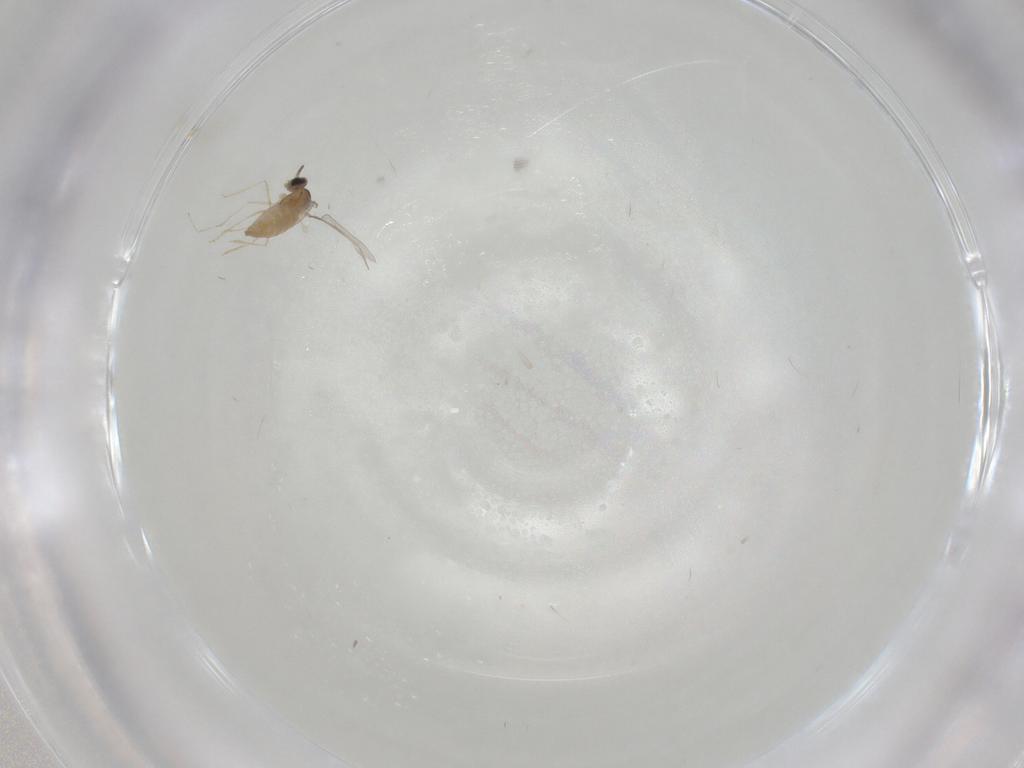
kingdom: Animalia
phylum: Arthropoda
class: Insecta
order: Diptera
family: Cecidomyiidae
